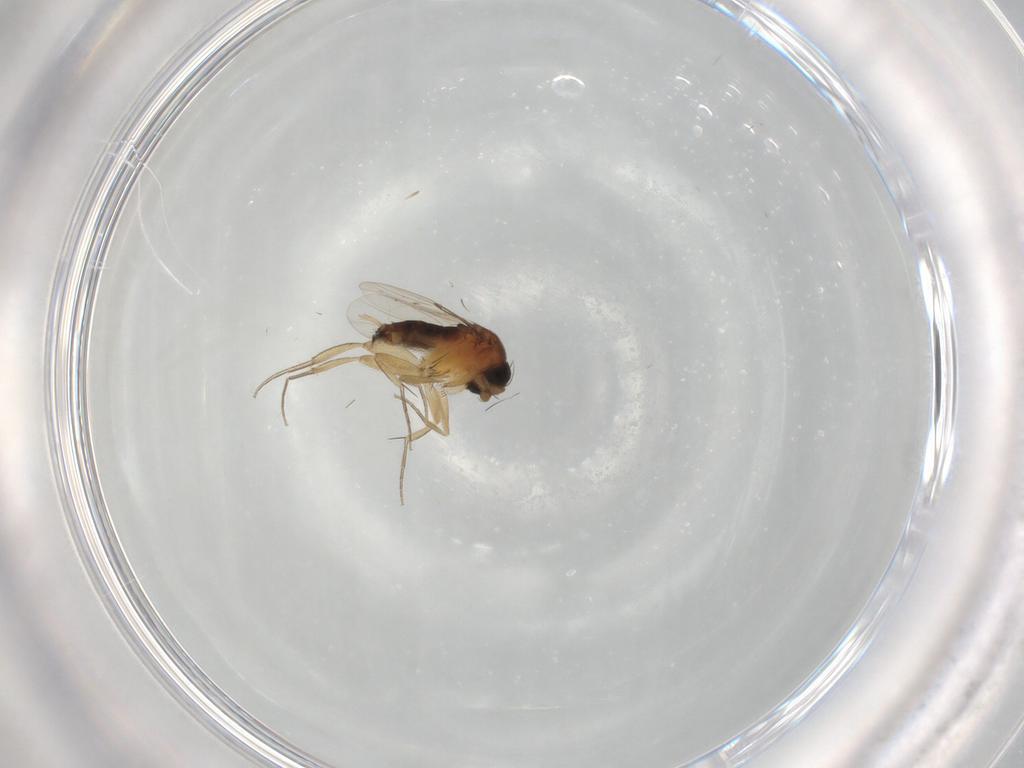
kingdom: Animalia
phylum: Arthropoda
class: Insecta
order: Diptera
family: Phoridae
